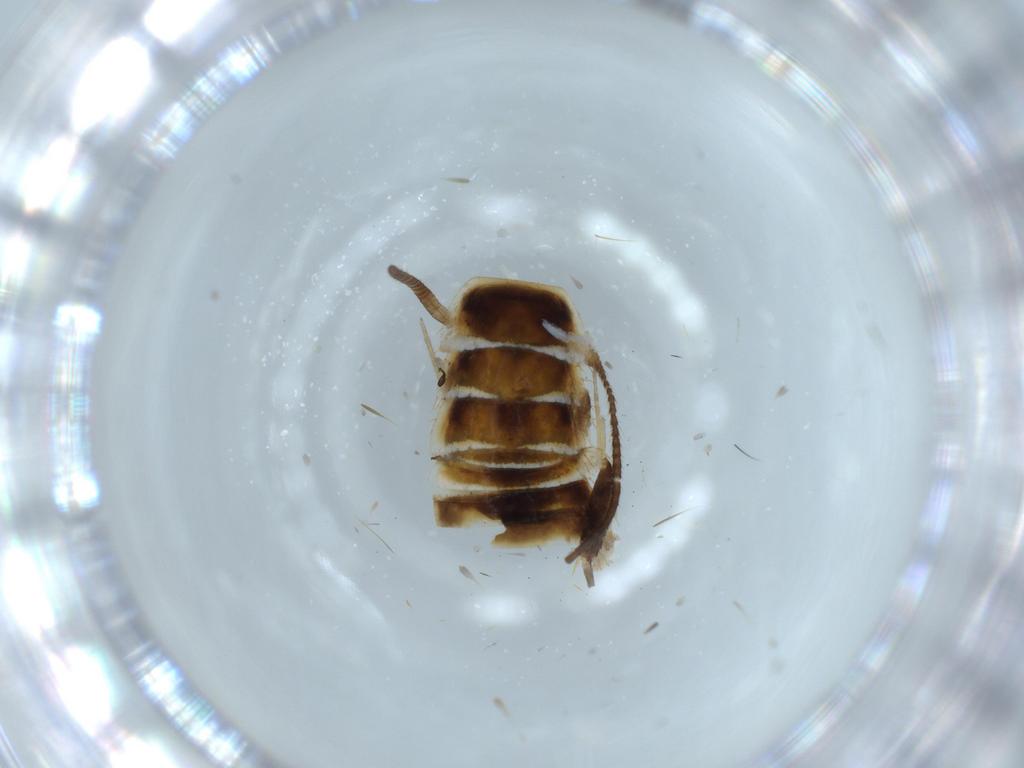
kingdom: Animalia
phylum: Arthropoda
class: Insecta
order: Blattodea
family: Ectobiidae
